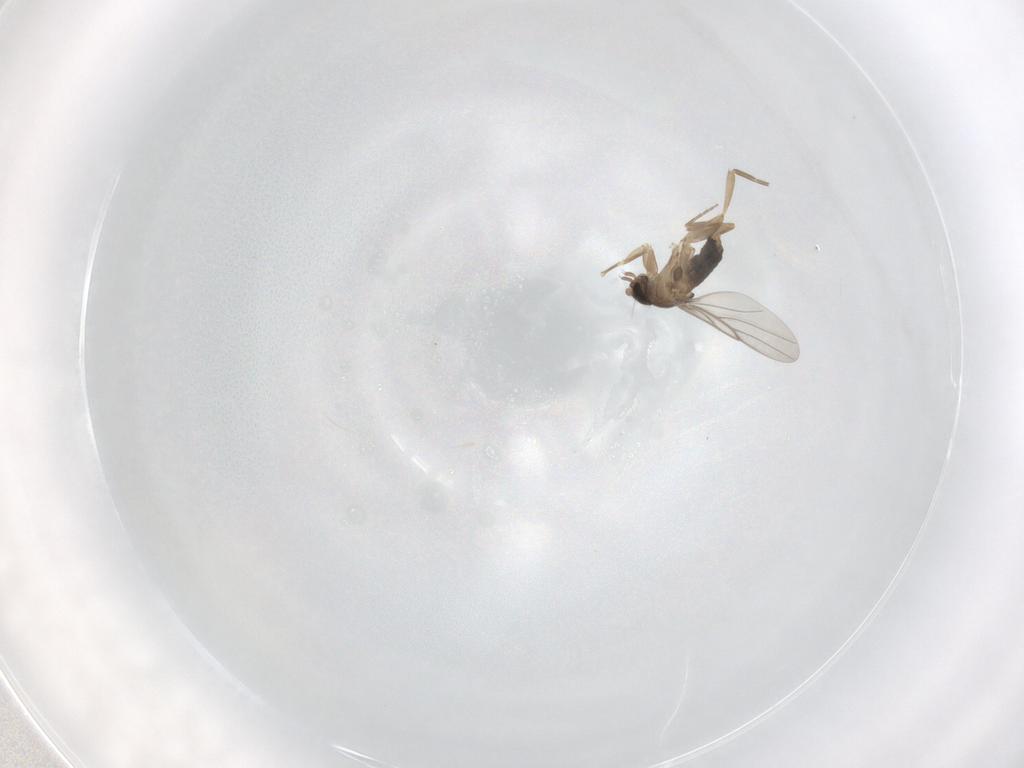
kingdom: Animalia
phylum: Arthropoda
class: Insecta
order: Diptera
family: Phoridae
